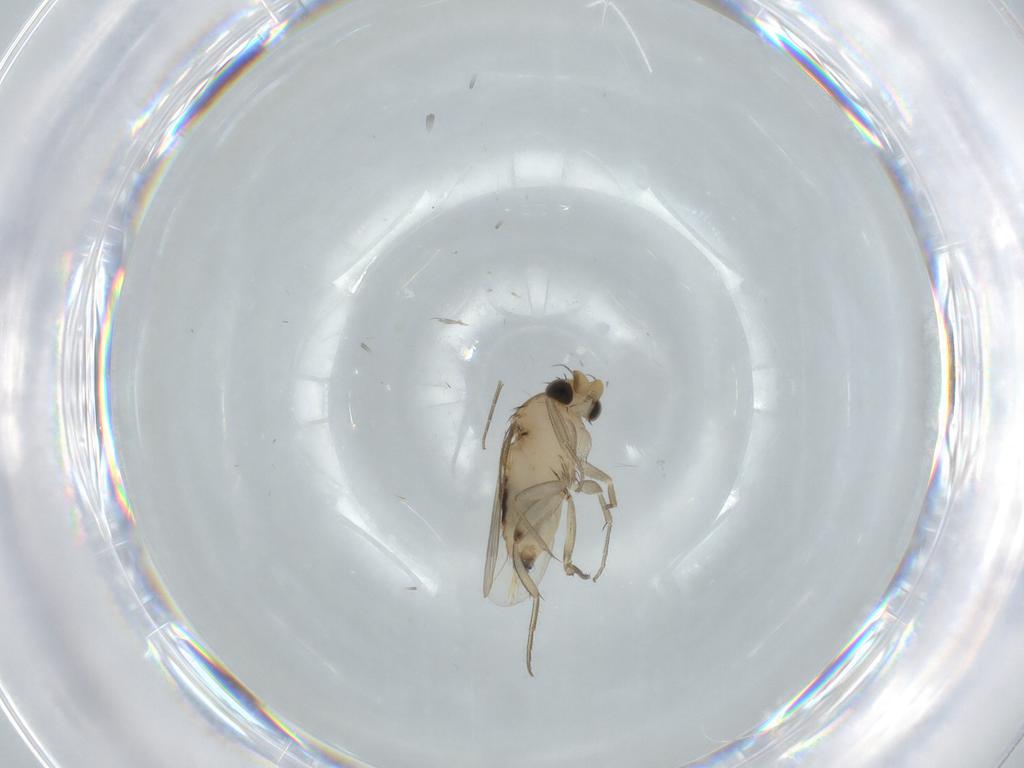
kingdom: Animalia
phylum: Arthropoda
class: Insecta
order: Diptera
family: Phoridae
